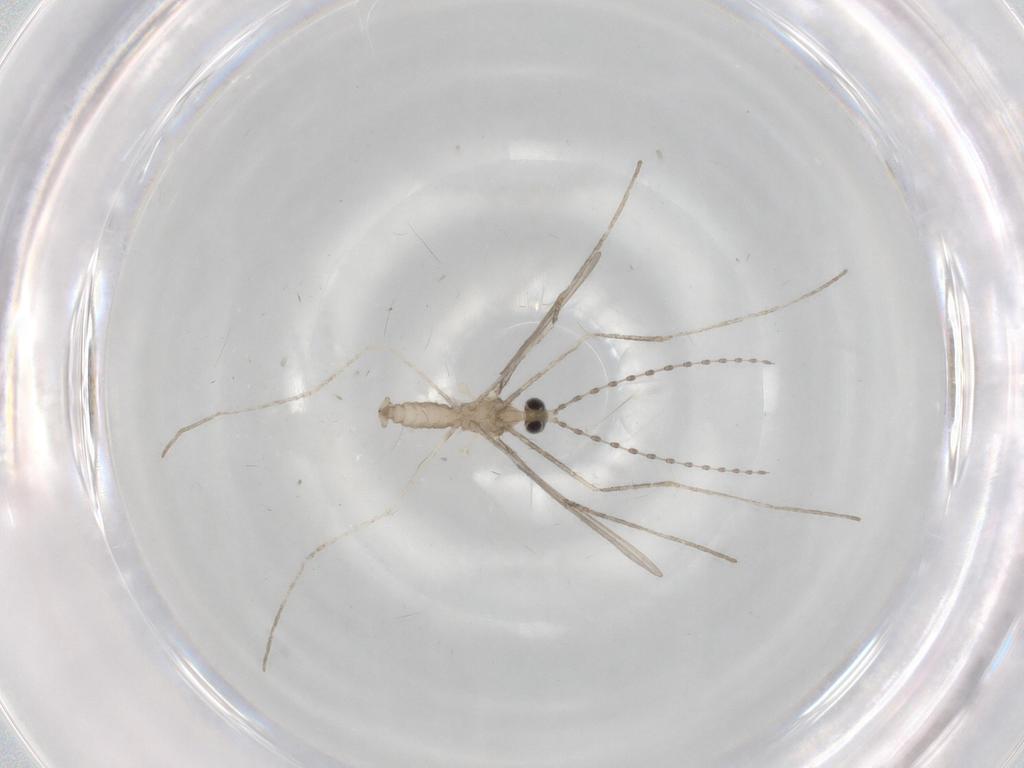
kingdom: Animalia
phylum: Arthropoda
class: Insecta
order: Diptera
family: Cecidomyiidae
